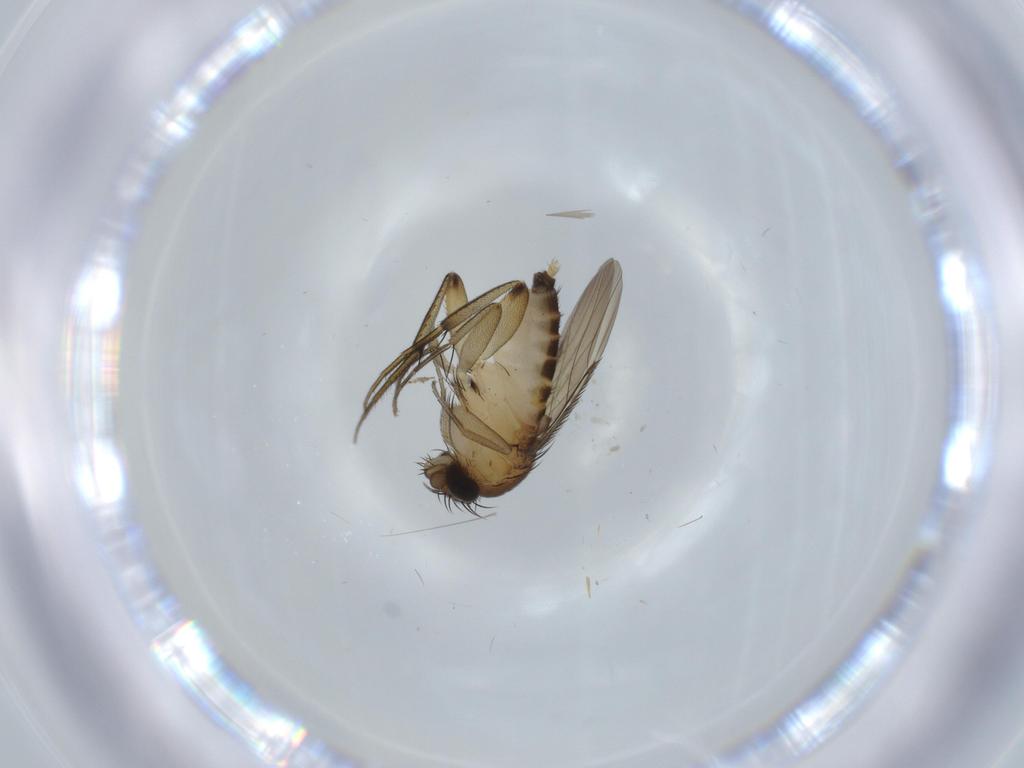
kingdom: Animalia
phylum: Arthropoda
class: Insecta
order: Diptera
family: Phoridae
